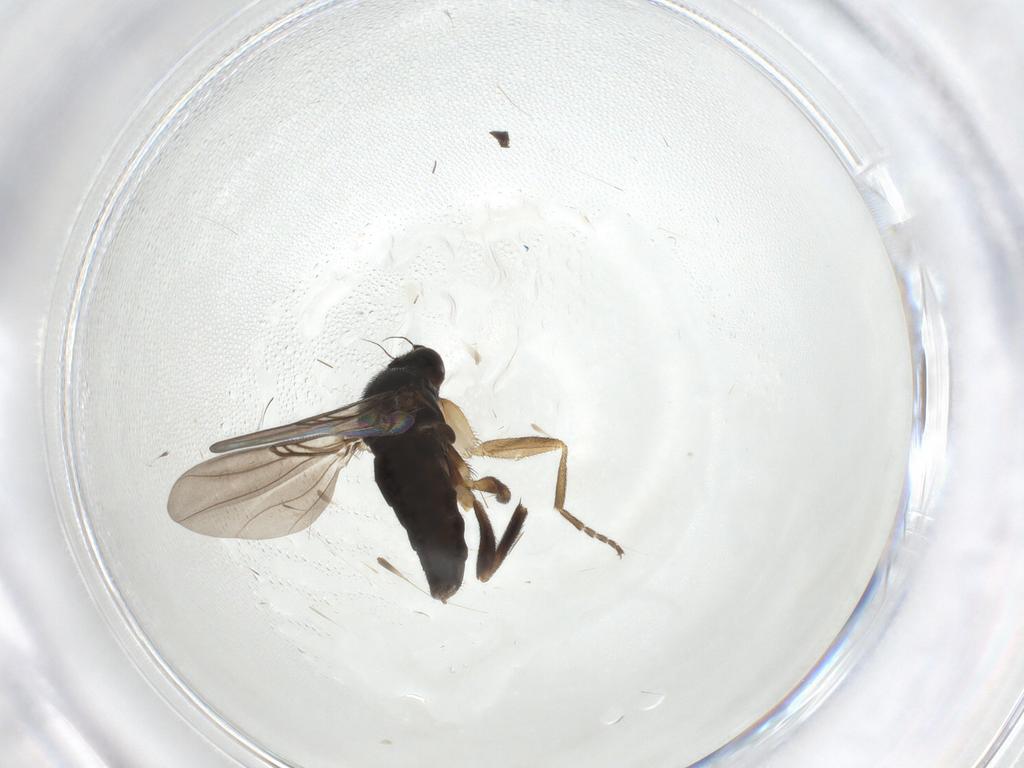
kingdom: Animalia
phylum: Arthropoda
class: Insecta
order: Diptera
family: Phoridae
